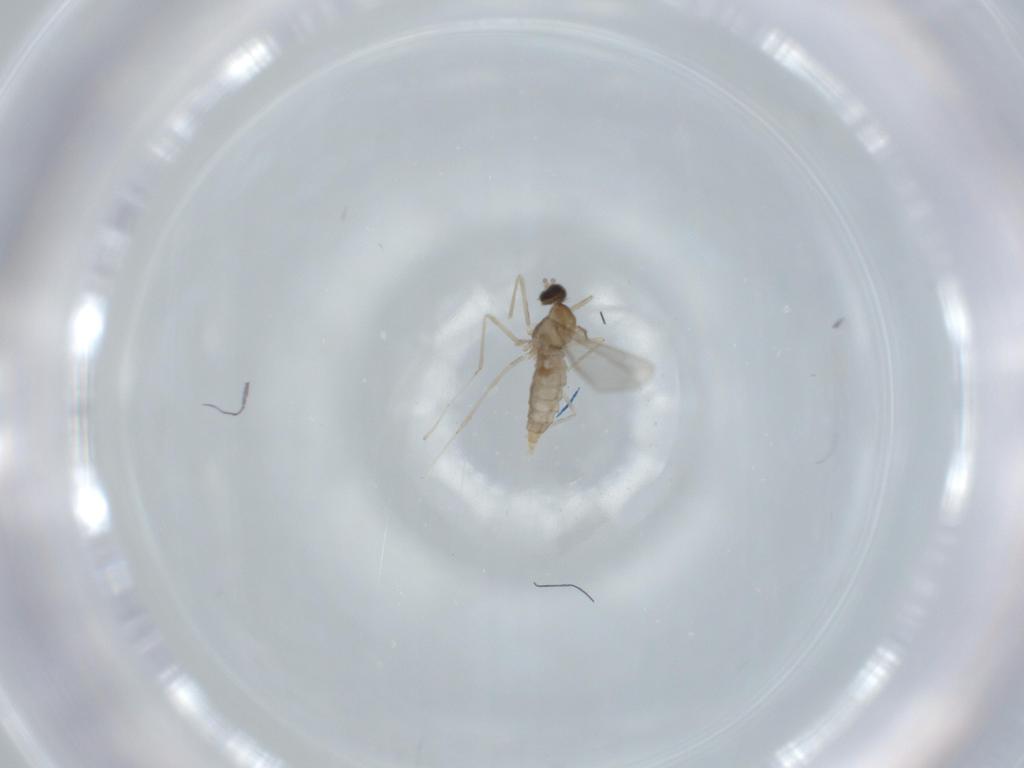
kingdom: Animalia
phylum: Arthropoda
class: Insecta
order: Diptera
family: Cecidomyiidae
